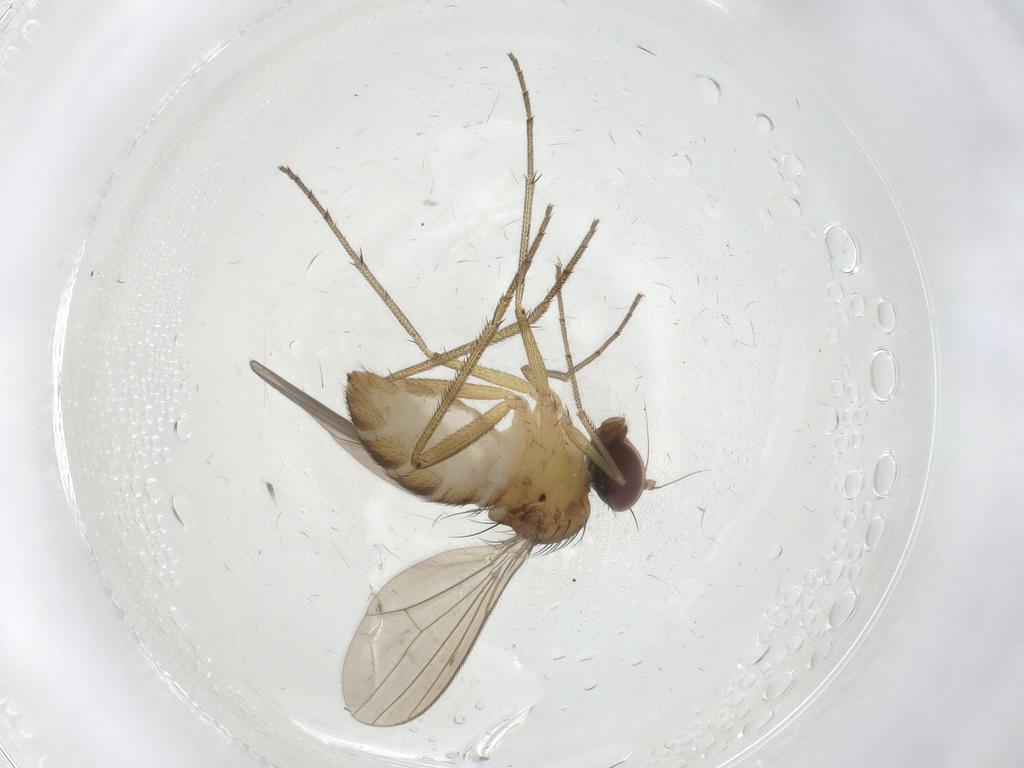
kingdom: Animalia
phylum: Arthropoda
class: Insecta
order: Diptera
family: Dolichopodidae
